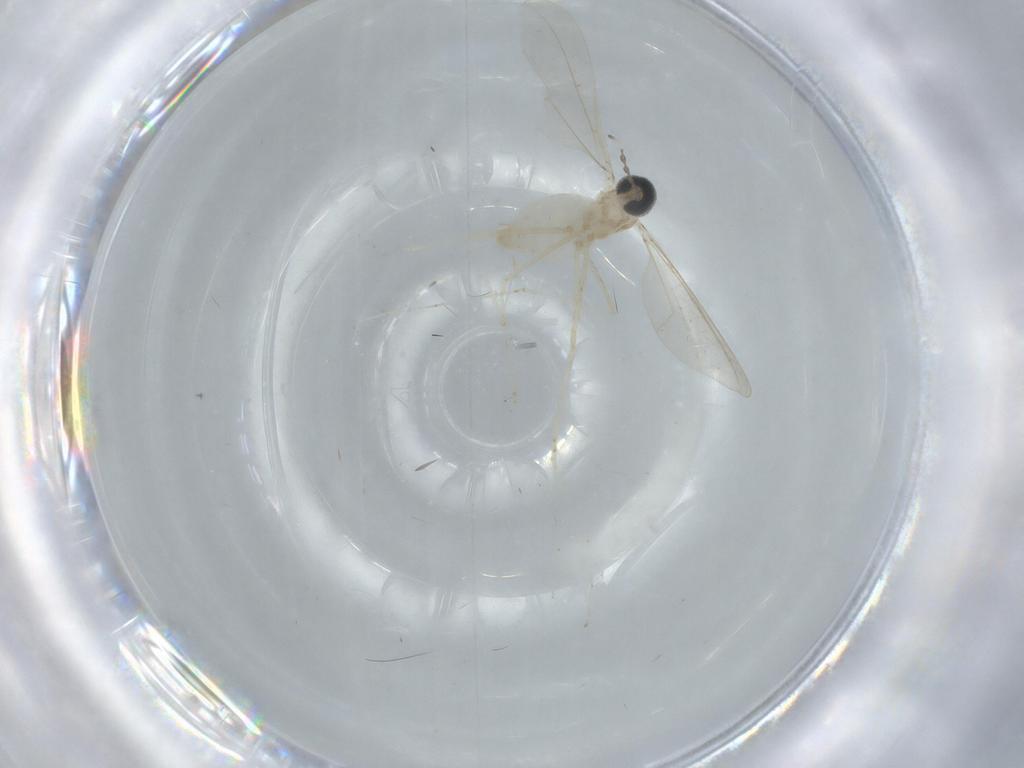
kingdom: Animalia
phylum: Arthropoda
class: Insecta
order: Diptera
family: Cecidomyiidae
